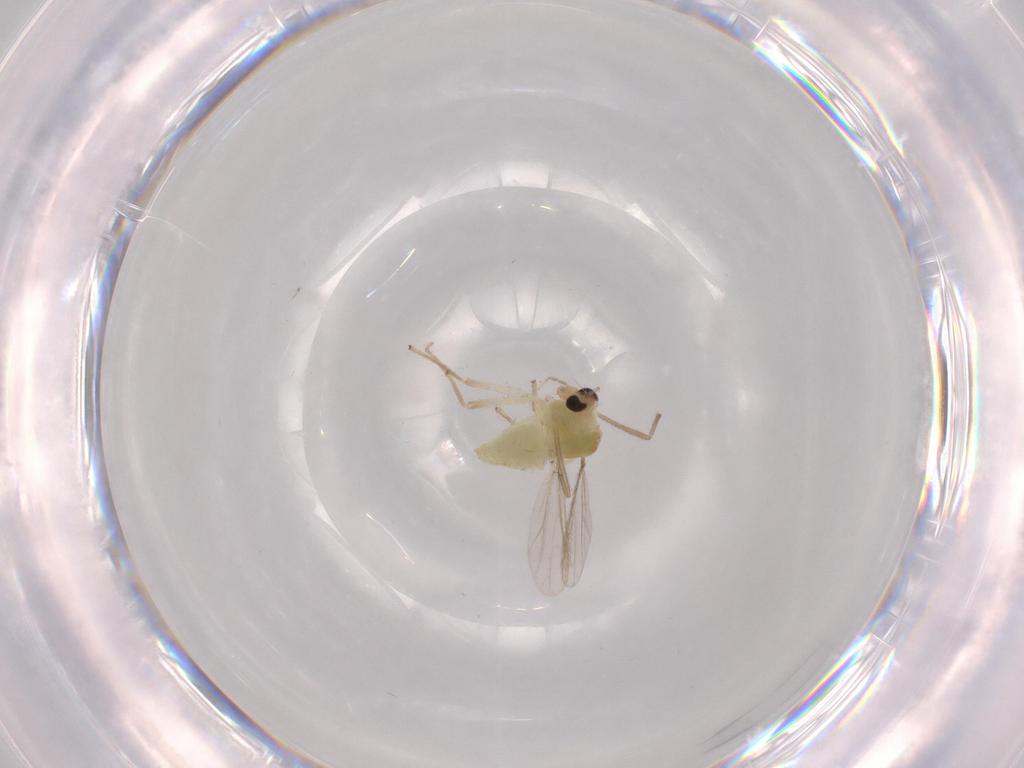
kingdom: Animalia
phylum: Arthropoda
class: Insecta
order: Diptera
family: Chironomidae
